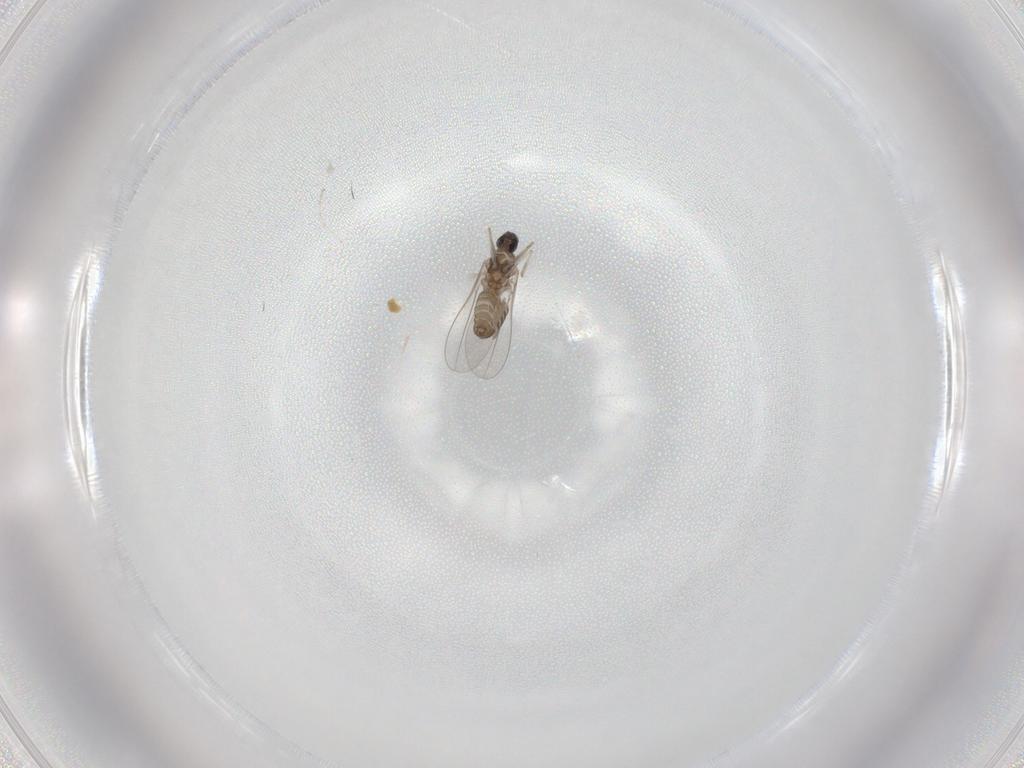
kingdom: Animalia
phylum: Arthropoda
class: Insecta
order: Diptera
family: Cecidomyiidae
